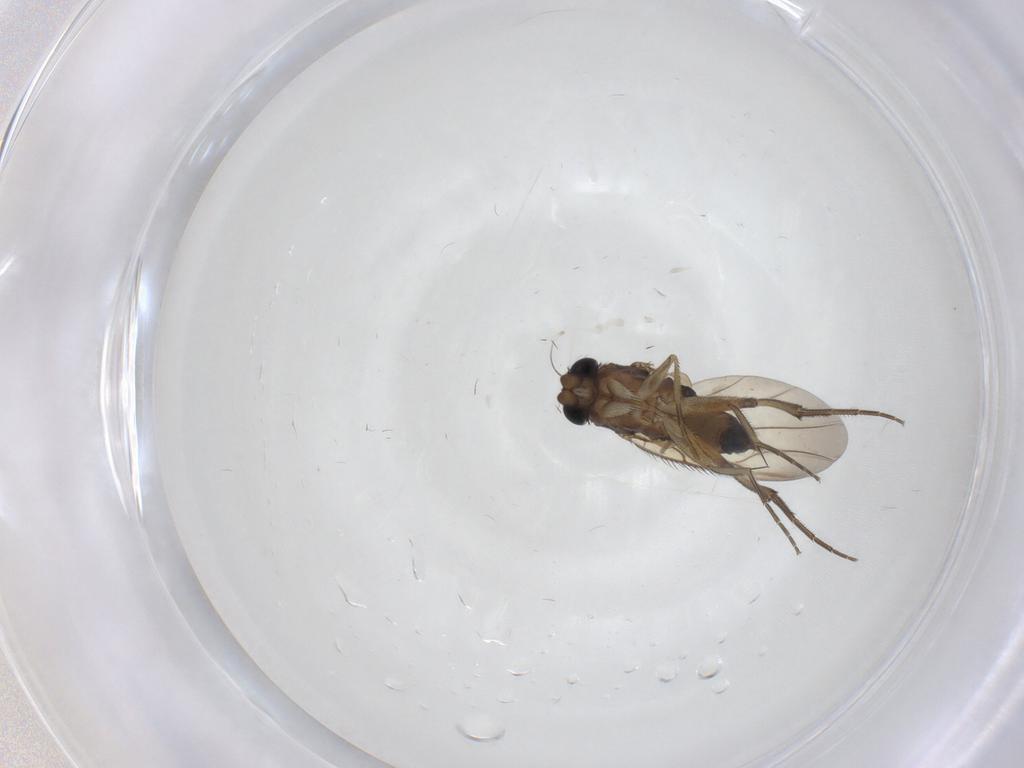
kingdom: Animalia
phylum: Arthropoda
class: Insecta
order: Diptera
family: Phoridae
